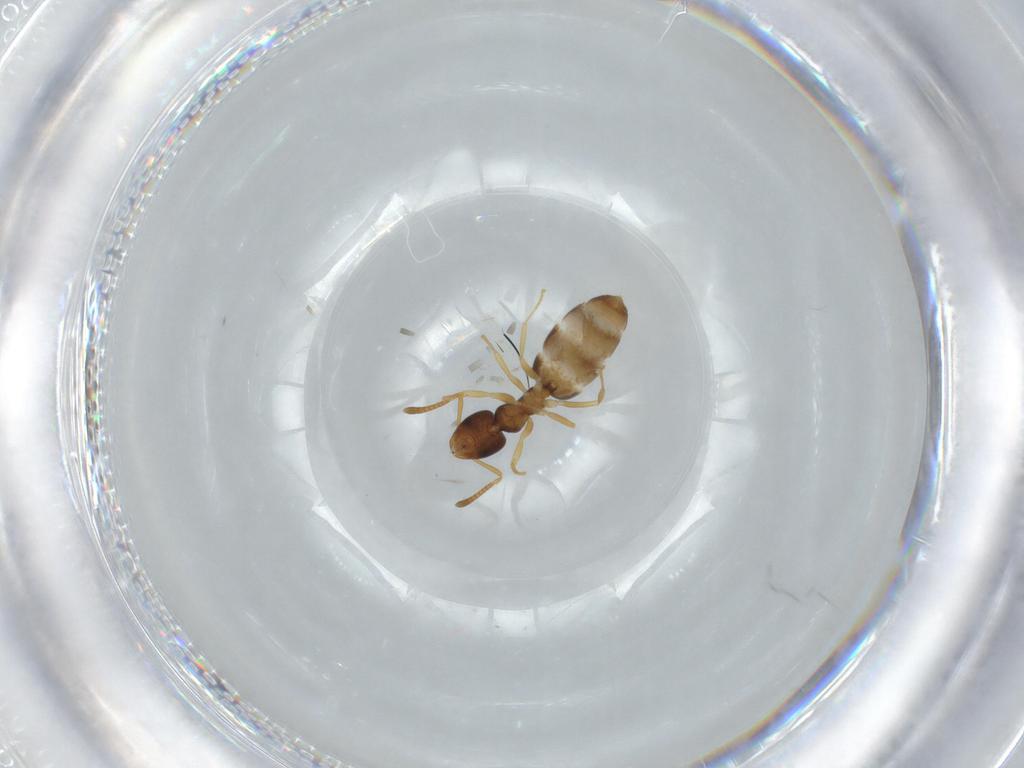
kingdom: Animalia
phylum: Arthropoda
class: Insecta
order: Hymenoptera
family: Formicidae
